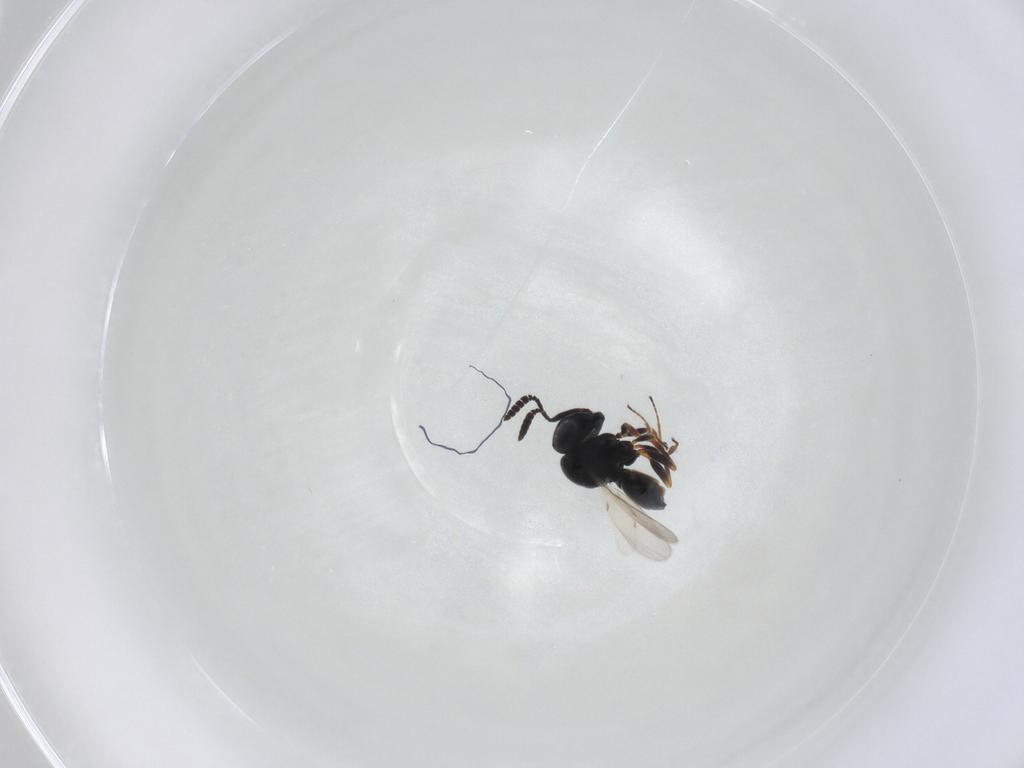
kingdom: Animalia
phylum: Arthropoda
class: Insecta
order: Hymenoptera
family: Scelionidae
